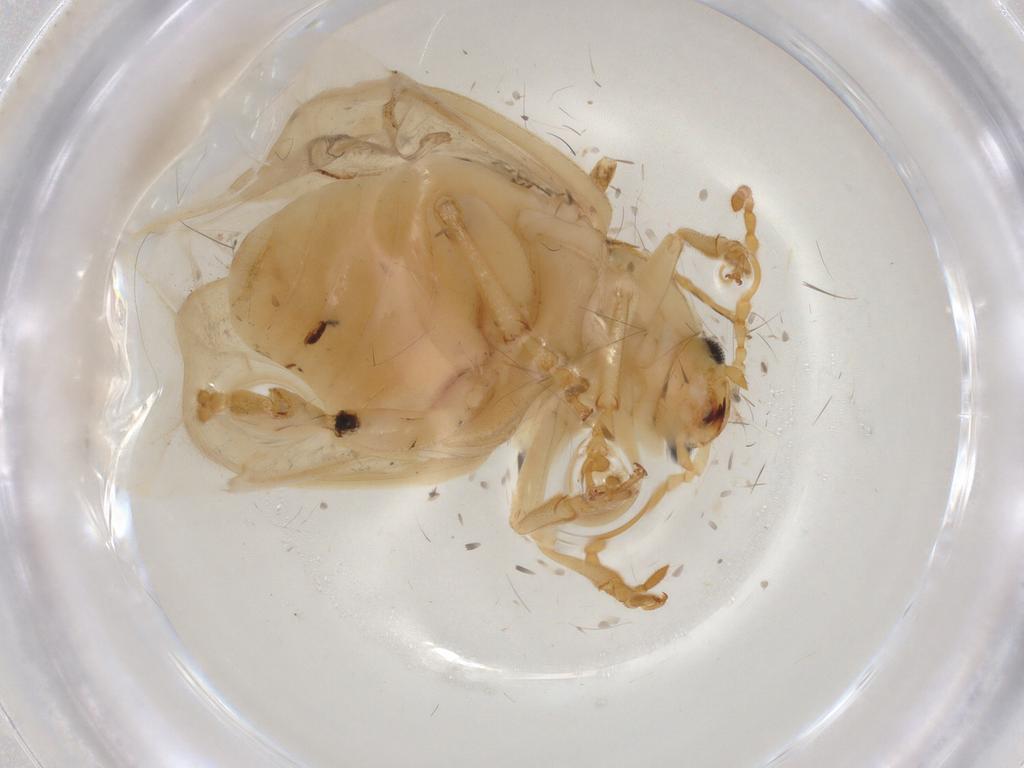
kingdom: Animalia
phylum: Arthropoda
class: Insecta
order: Coleoptera
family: Chrysomelidae
